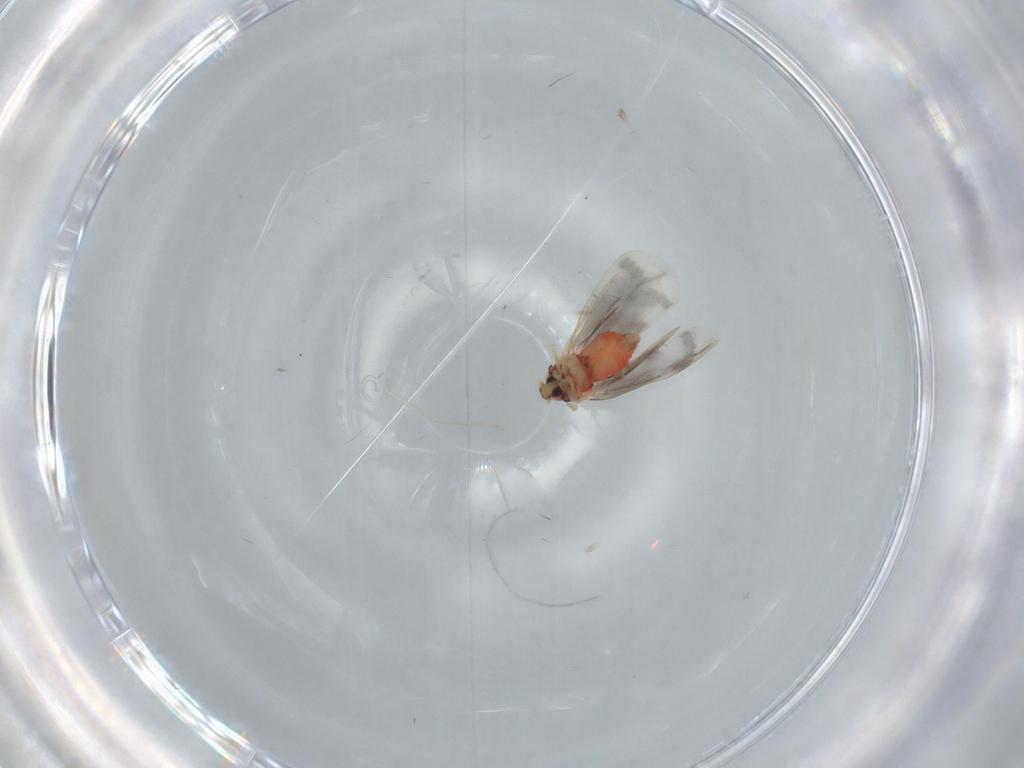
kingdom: Animalia
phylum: Arthropoda
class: Insecta
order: Hemiptera
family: Aleyrodidae
